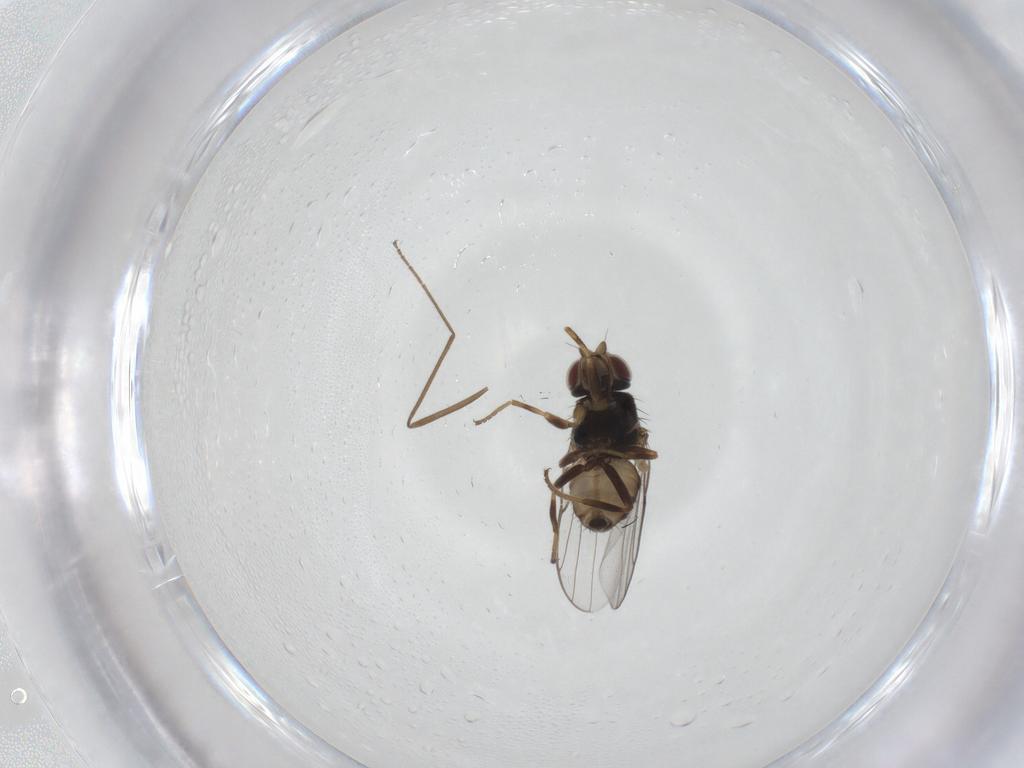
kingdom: Animalia
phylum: Arthropoda
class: Insecta
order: Diptera
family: Chloropidae
